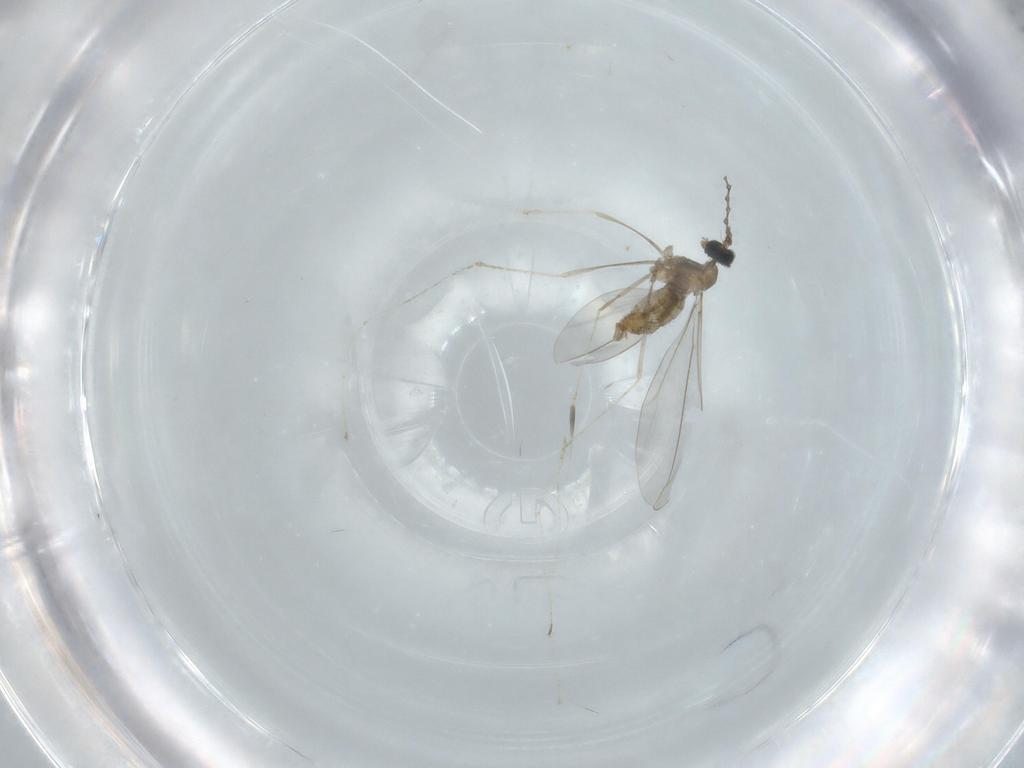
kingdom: Animalia
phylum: Arthropoda
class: Insecta
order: Diptera
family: Cecidomyiidae
